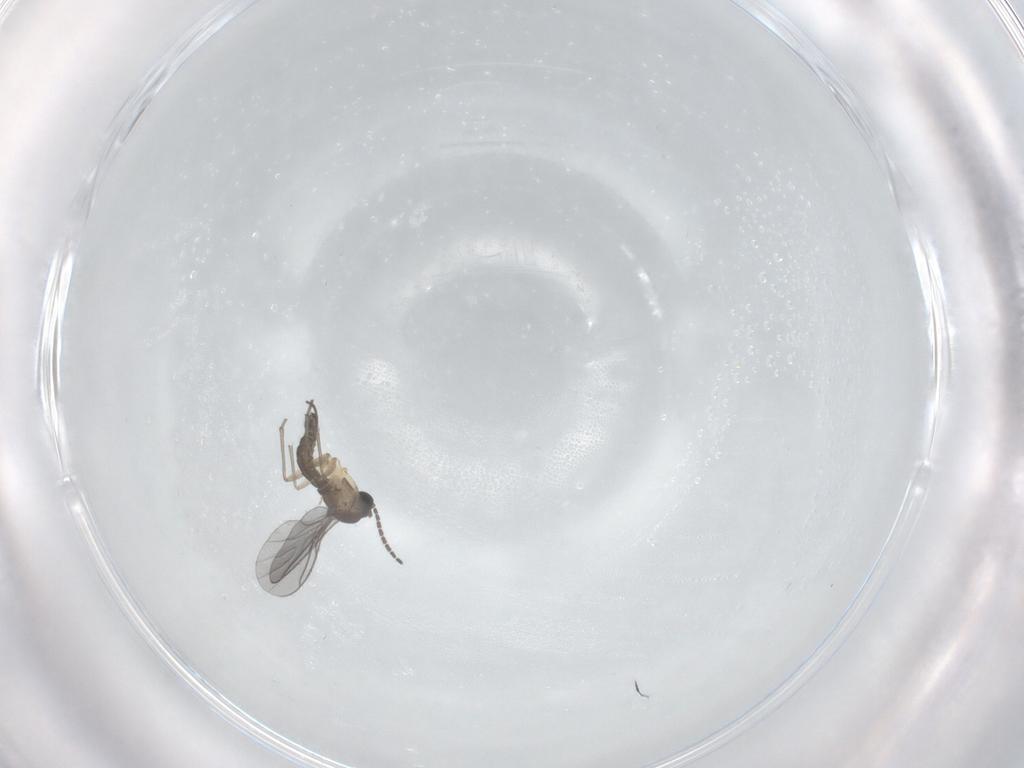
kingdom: Animalia
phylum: Arthropoda
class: Insecta
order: Diptera
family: Sciaridae
